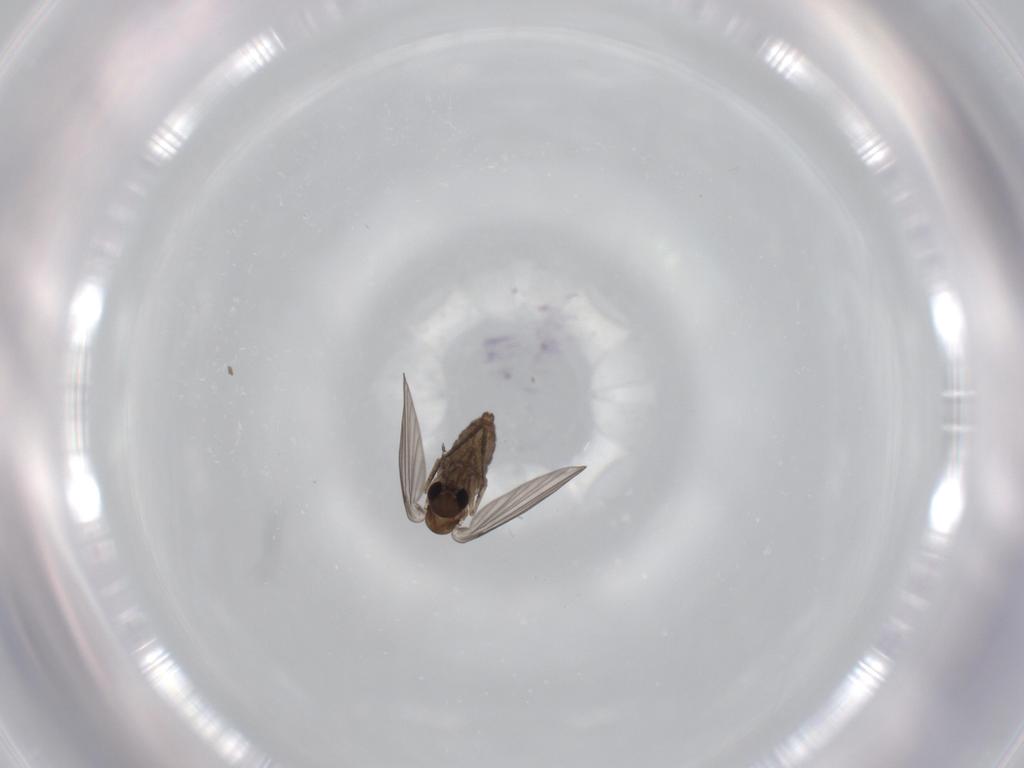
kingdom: Animalia
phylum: Arthropoda
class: Insecta
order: Diptera
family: Psychodidae
